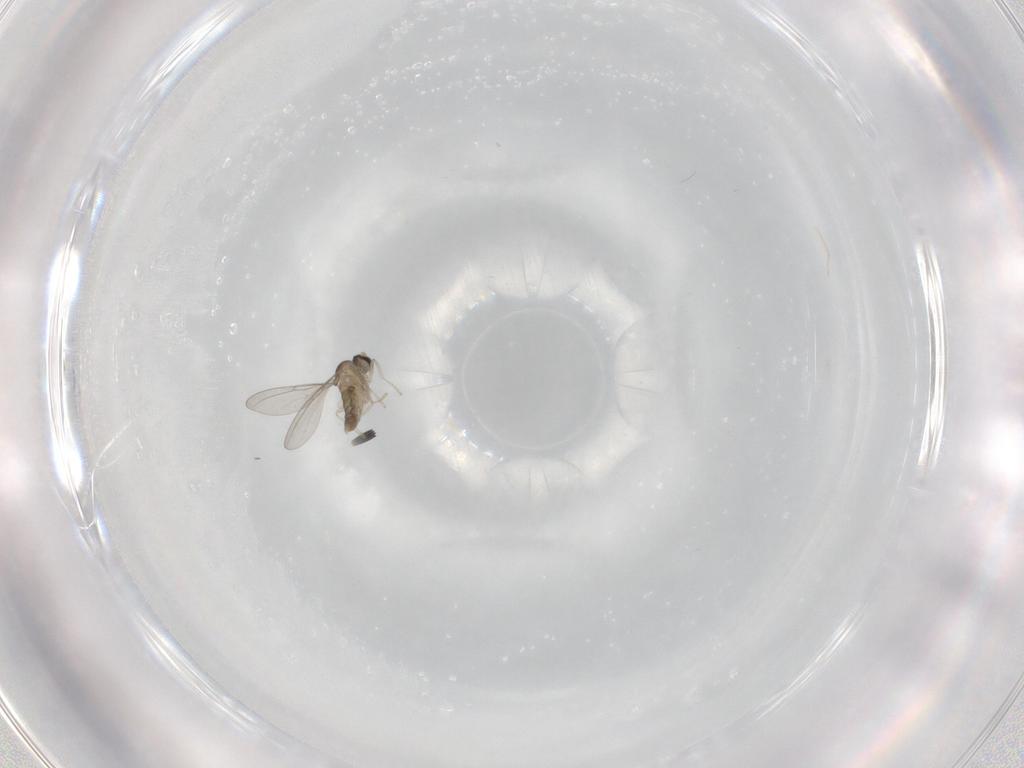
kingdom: Animalia
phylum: Arthropoda
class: Insecta
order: Diptera
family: Cecidomyiidae
